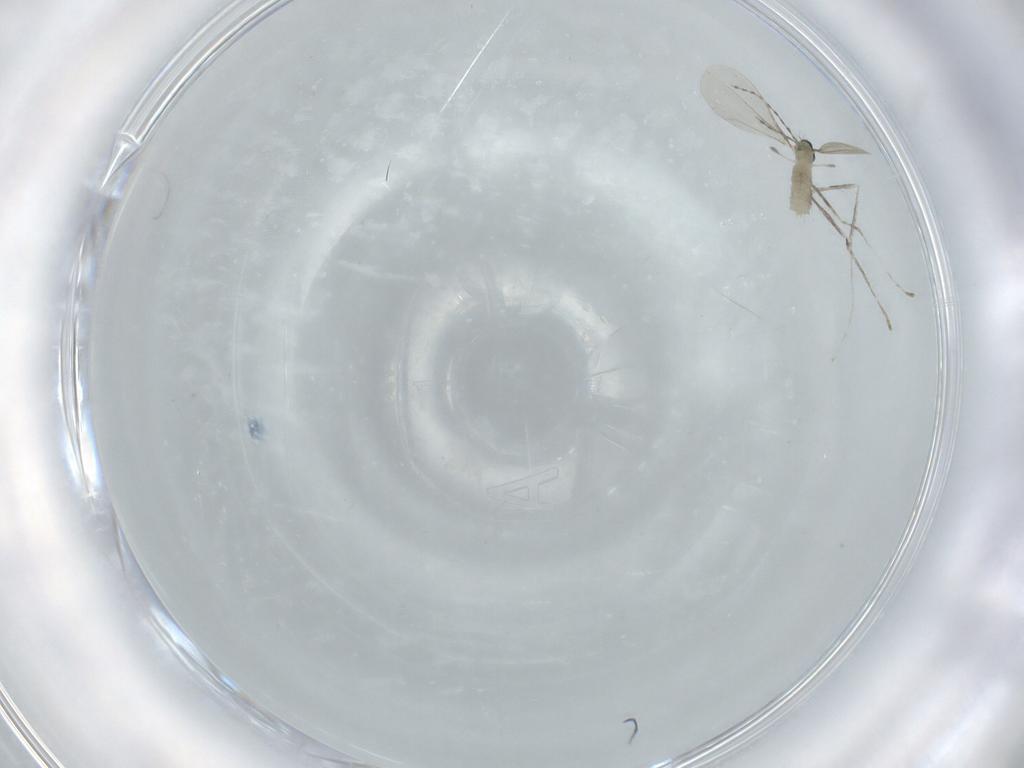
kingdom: Animalia
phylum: Arthropoda
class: Insecta
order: Diptera
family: Cecidomyiidae
